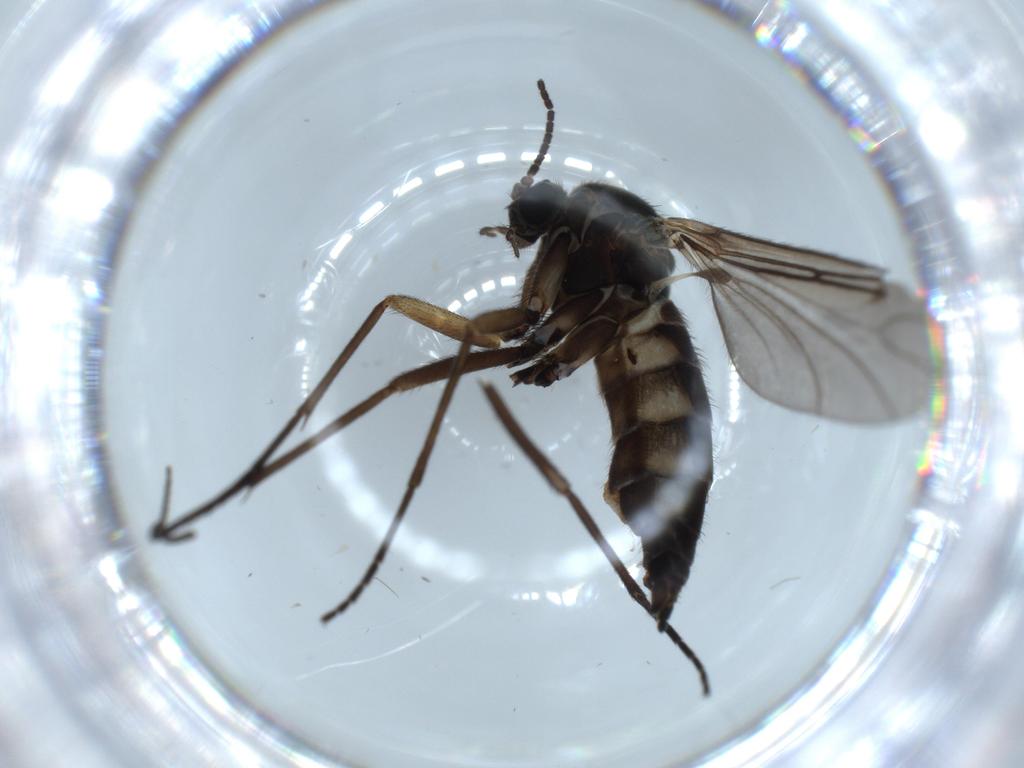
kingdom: Animalia
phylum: Arthropoda
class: Insecta
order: Diptera
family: Sciaridae
